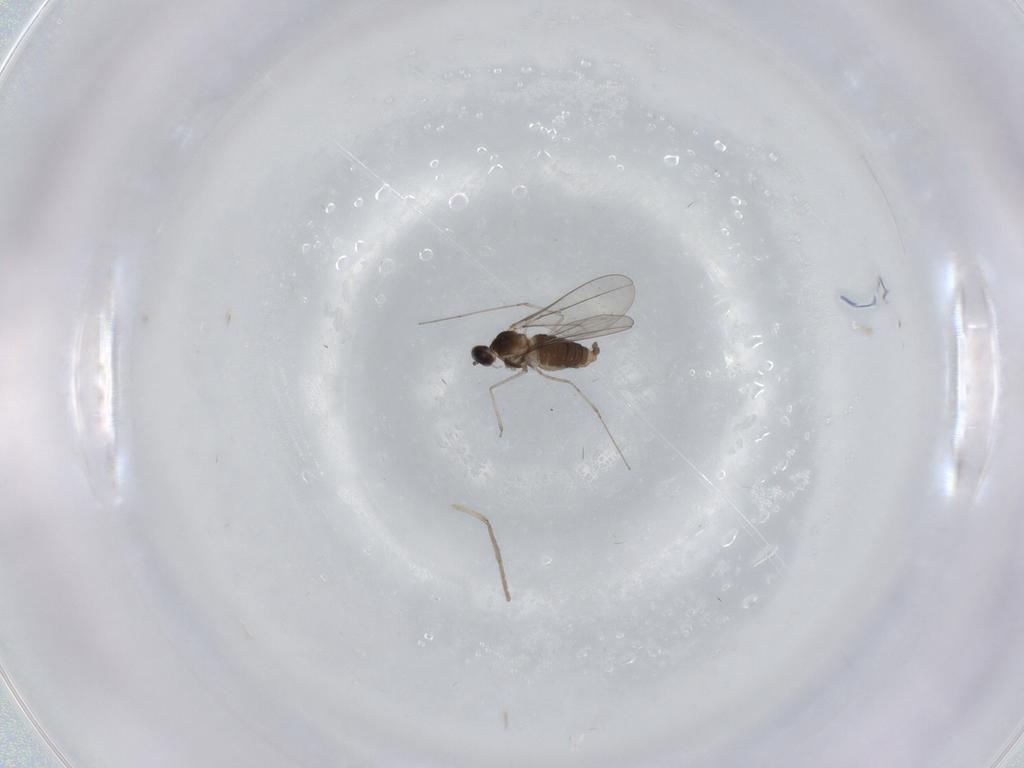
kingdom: Animalia
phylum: Arthropoda
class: Insecta
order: Diptera
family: Cecidomyiidae
